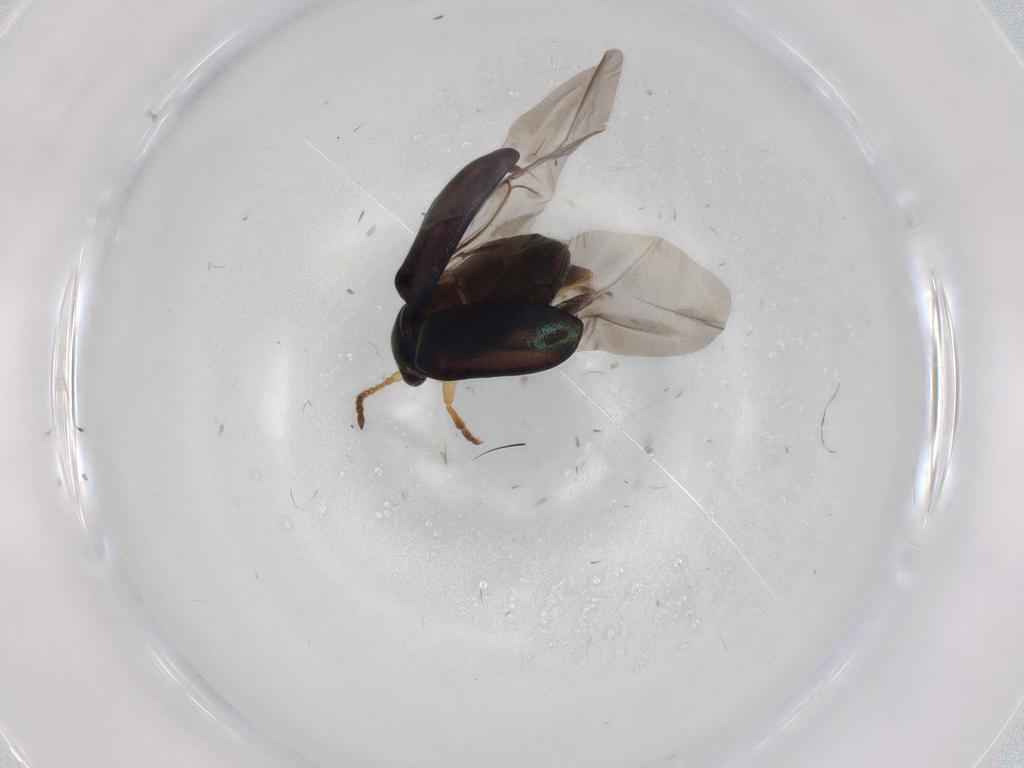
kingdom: Animalia
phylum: Arthropoda
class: Insecta
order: Coleoptera
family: Chrysomelidae
